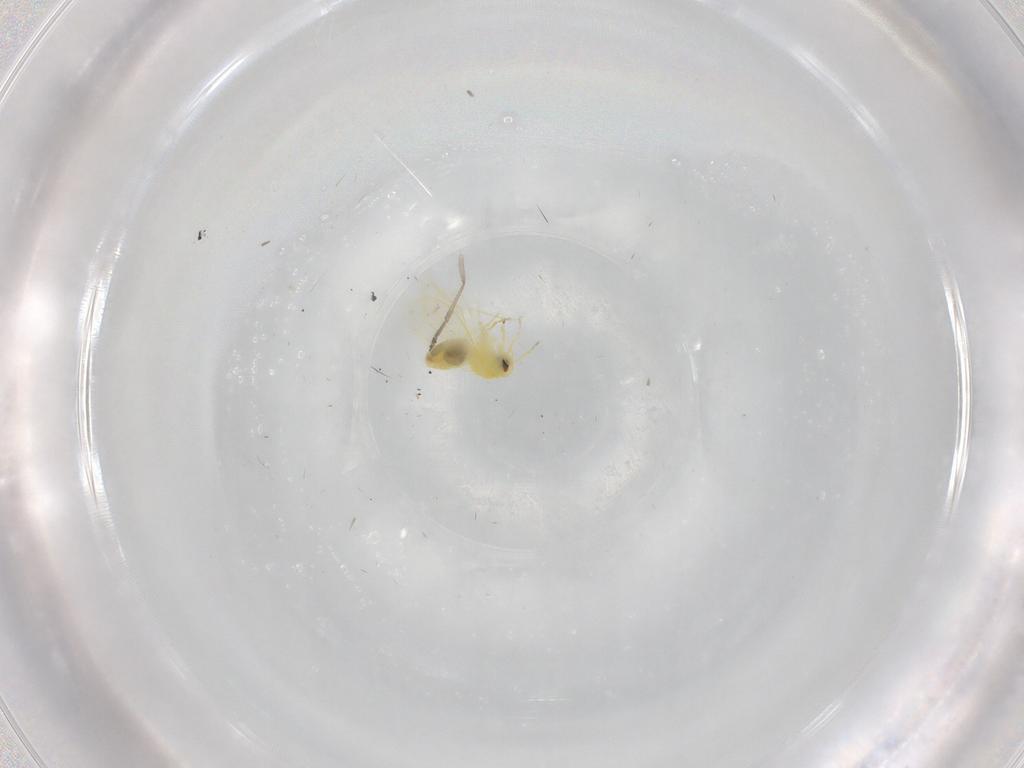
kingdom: Animalia
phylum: Arthropoda
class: Insecta
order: Hemiptera
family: Aleyrodidae
